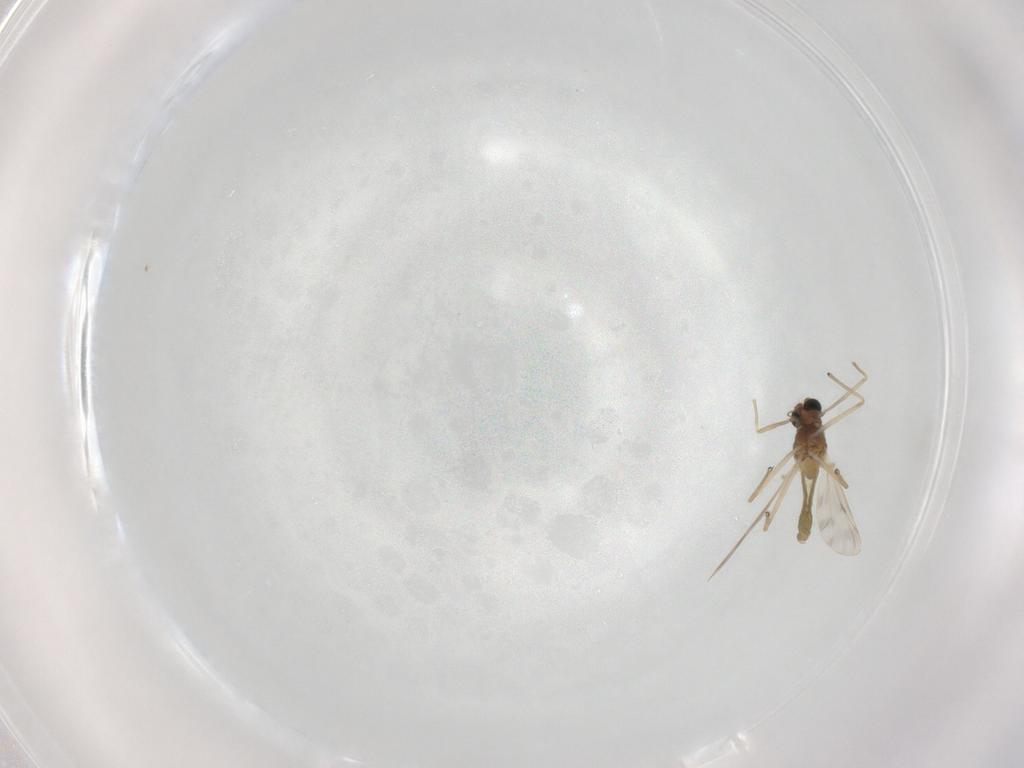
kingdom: Animalia
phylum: Arthropoda
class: Insecta
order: Diptera
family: Chironomidae
